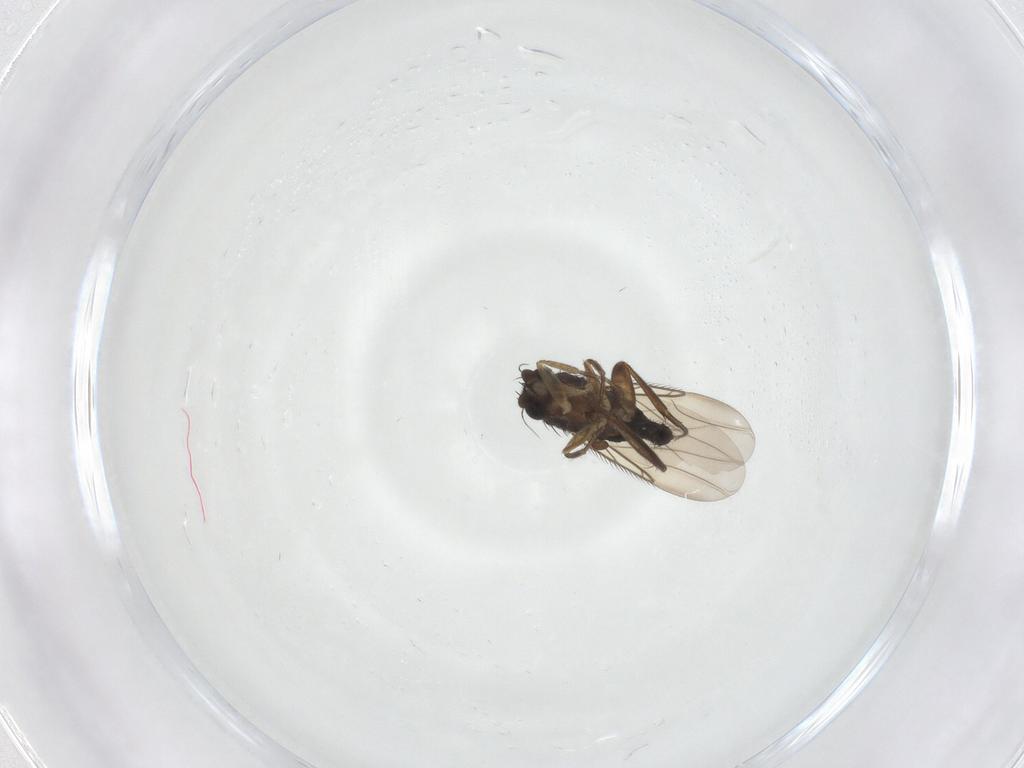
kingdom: Animalia
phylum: Arthropoda
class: Insecta
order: Diptera
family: Phoridae
